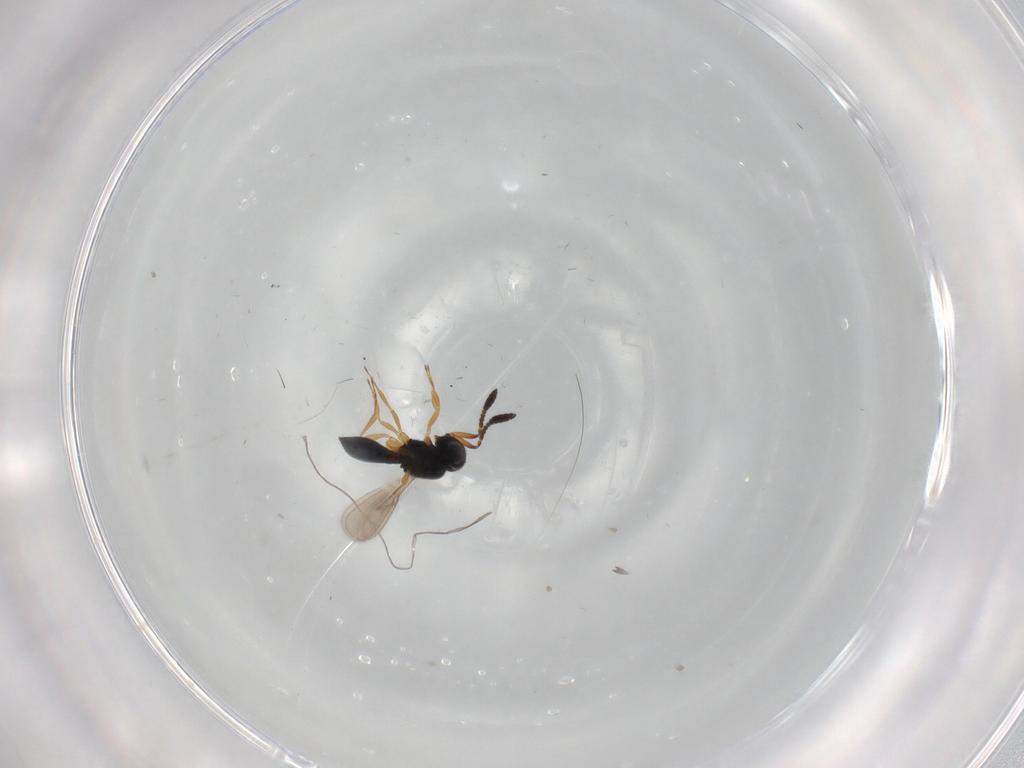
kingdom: Animalia
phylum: Arthropoda
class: Insecta
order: Hymenoptera
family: Scelionidae
